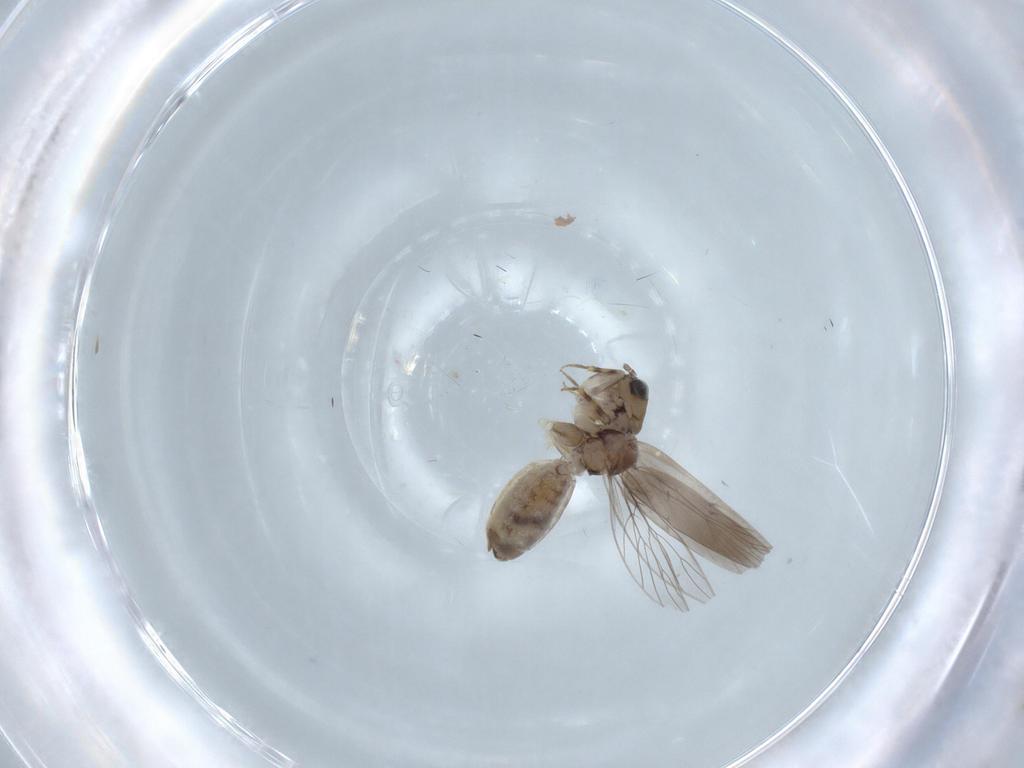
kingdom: Animalia
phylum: Arthropoda
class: Insecta
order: Psocodea
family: Lepidopsocidae
